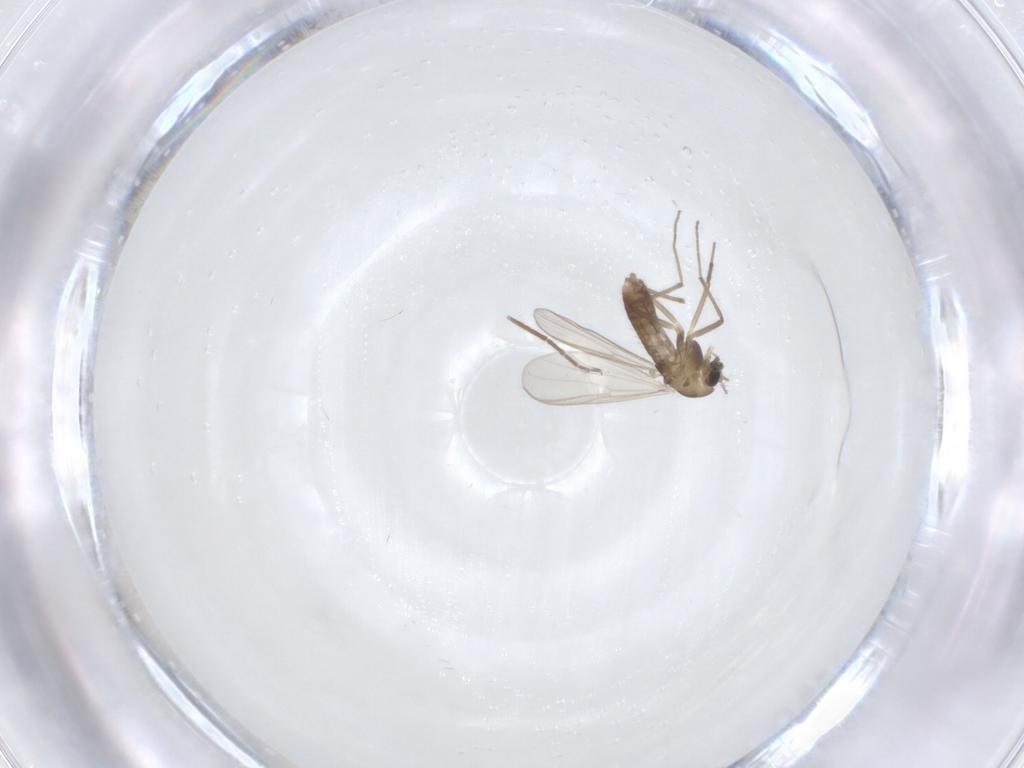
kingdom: Animalia
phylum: Arthropoda
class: Insecta
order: Diptera
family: Chironomidae
